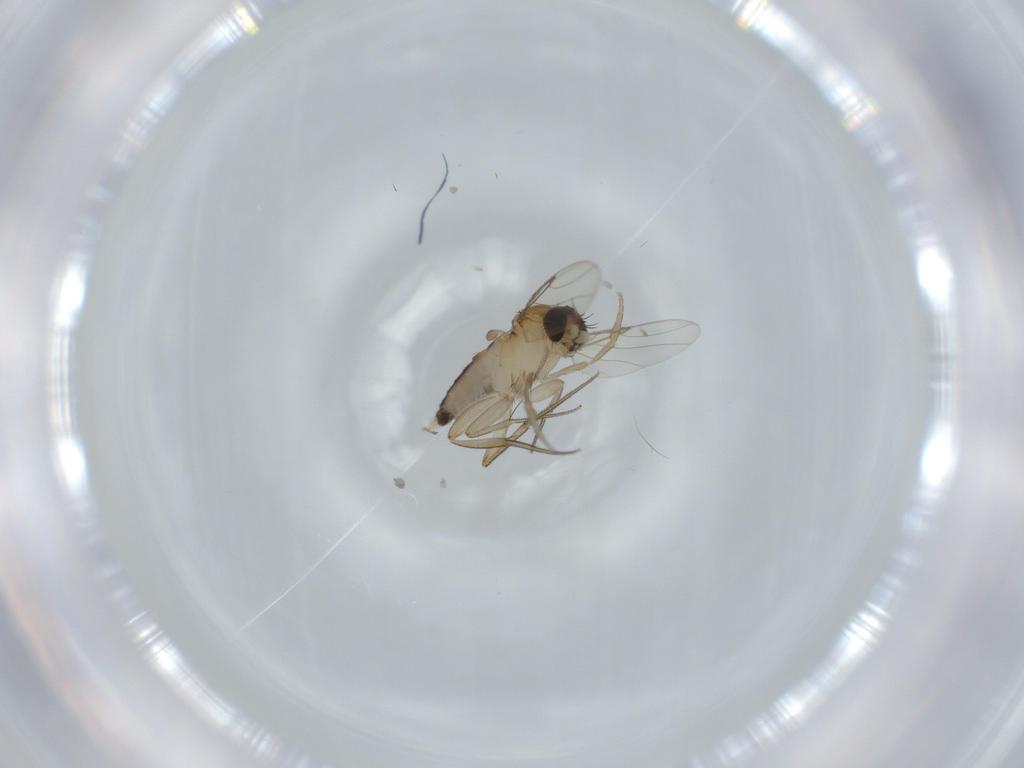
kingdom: Animalia
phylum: Arthropoda
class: Insecta
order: Diptera
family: Phoridae
